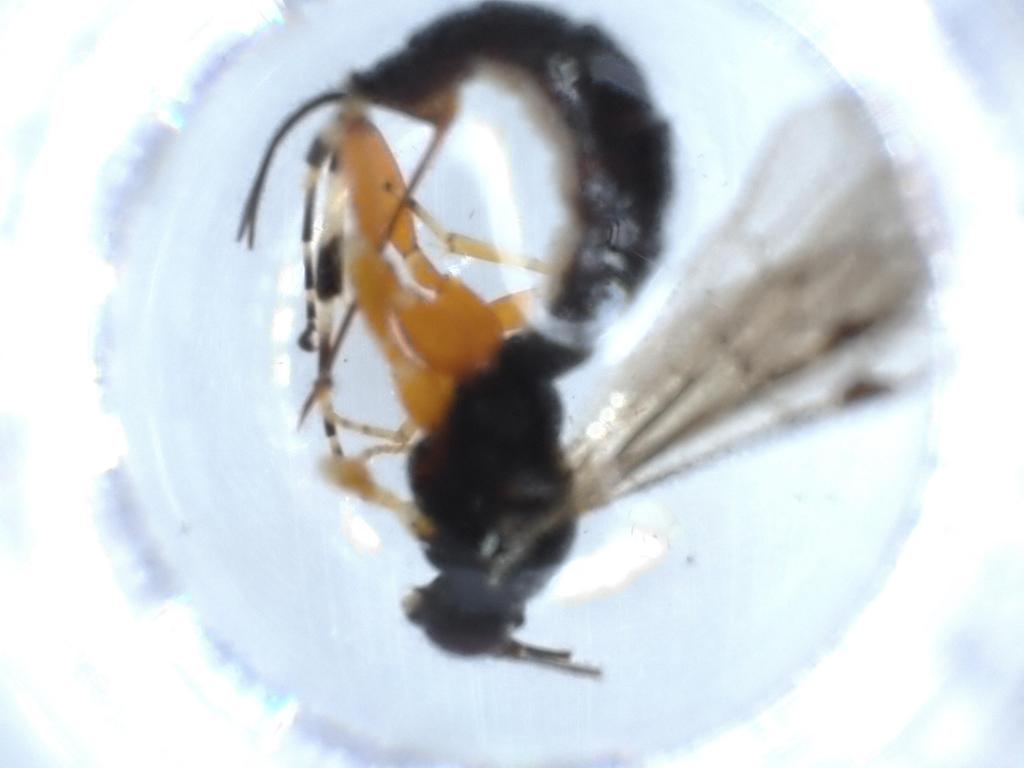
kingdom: Animalia
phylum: Arthropoda
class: Insecta
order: Hymenoptera
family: Ichneumonidae
